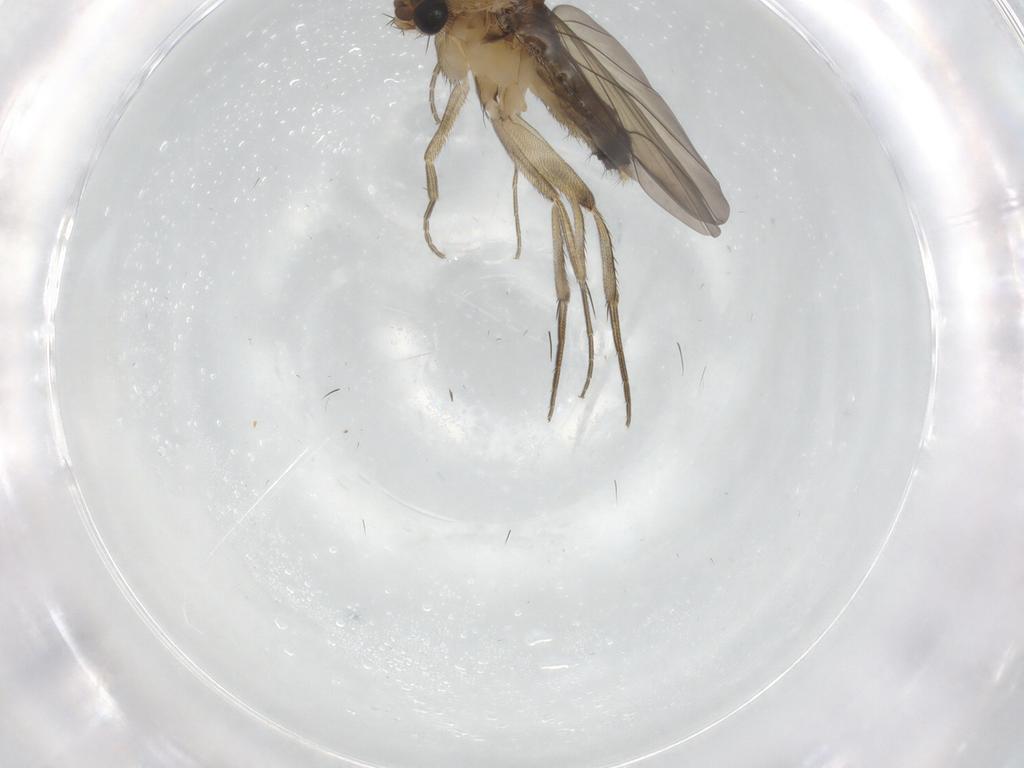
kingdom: Animalia
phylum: Arthropoda
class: Insecta
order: Diptera
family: Phoridae
